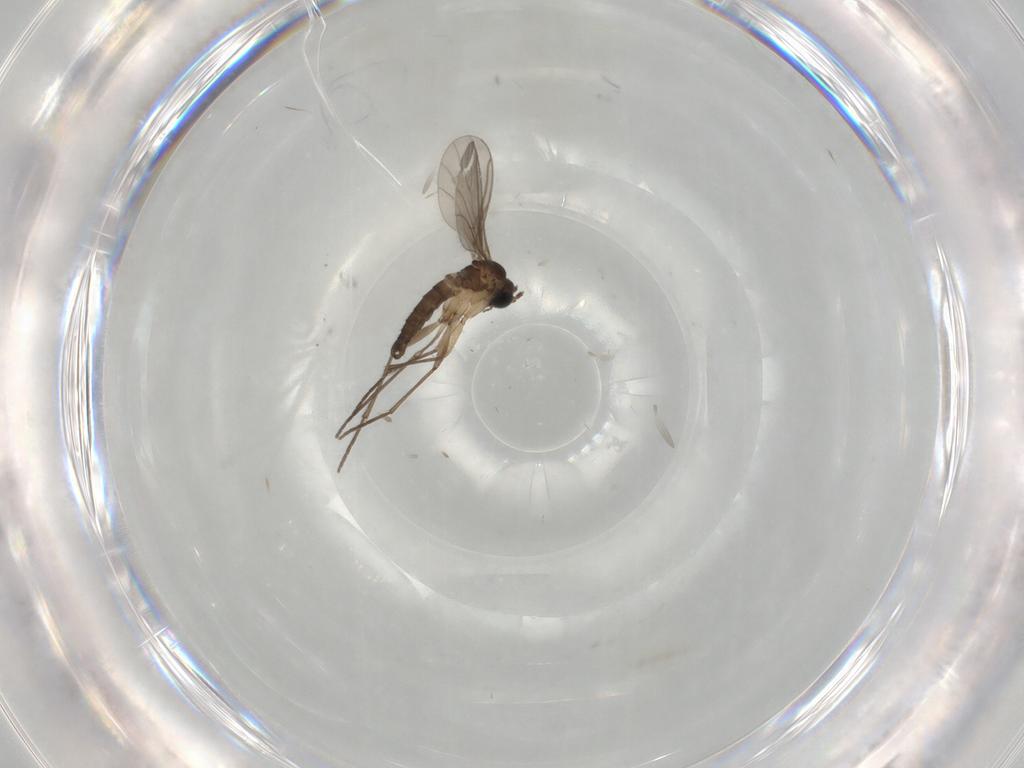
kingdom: Animalia
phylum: Arthropoda
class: Insecta
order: Diptera
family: Sciaridae
